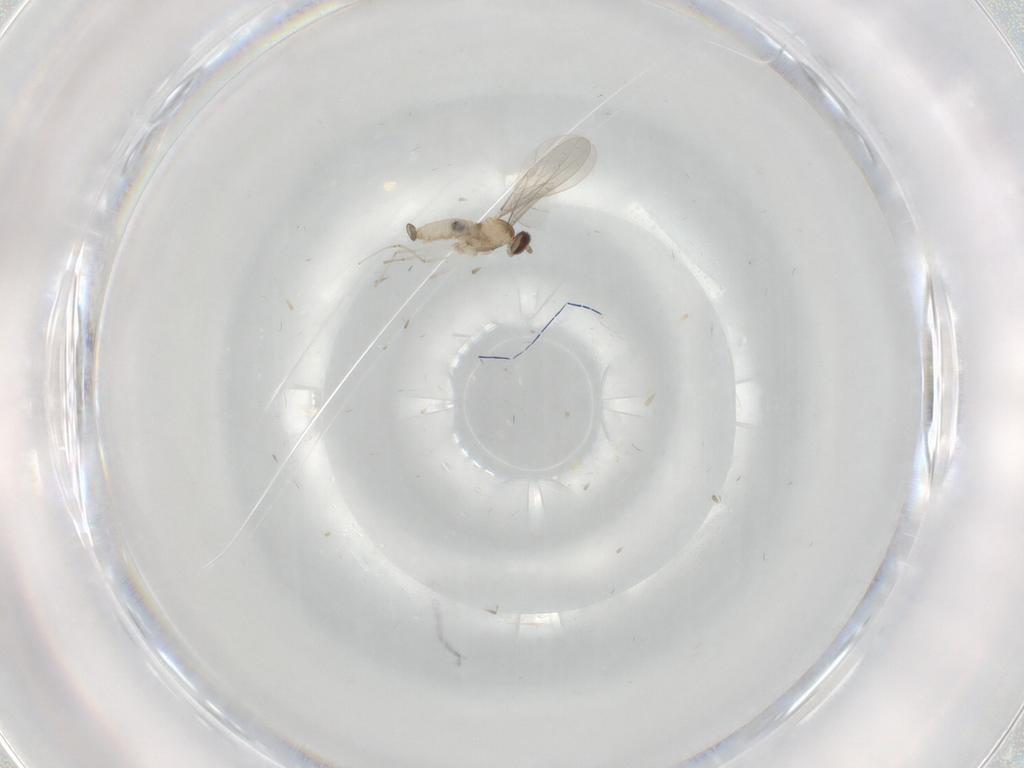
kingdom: Animalia
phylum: Arthropoda
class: Insecta
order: Diptera
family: Cecidomyiidae
